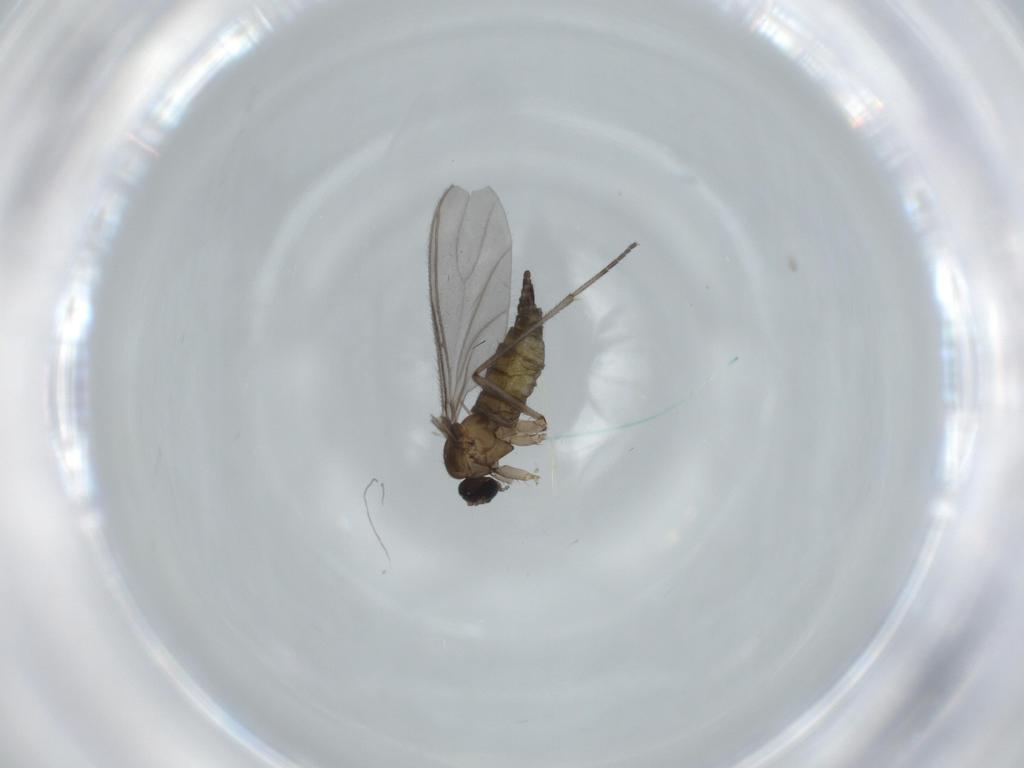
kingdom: Animalia
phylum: Arthropoda
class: Insecta
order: Diptera
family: Sciaridae
